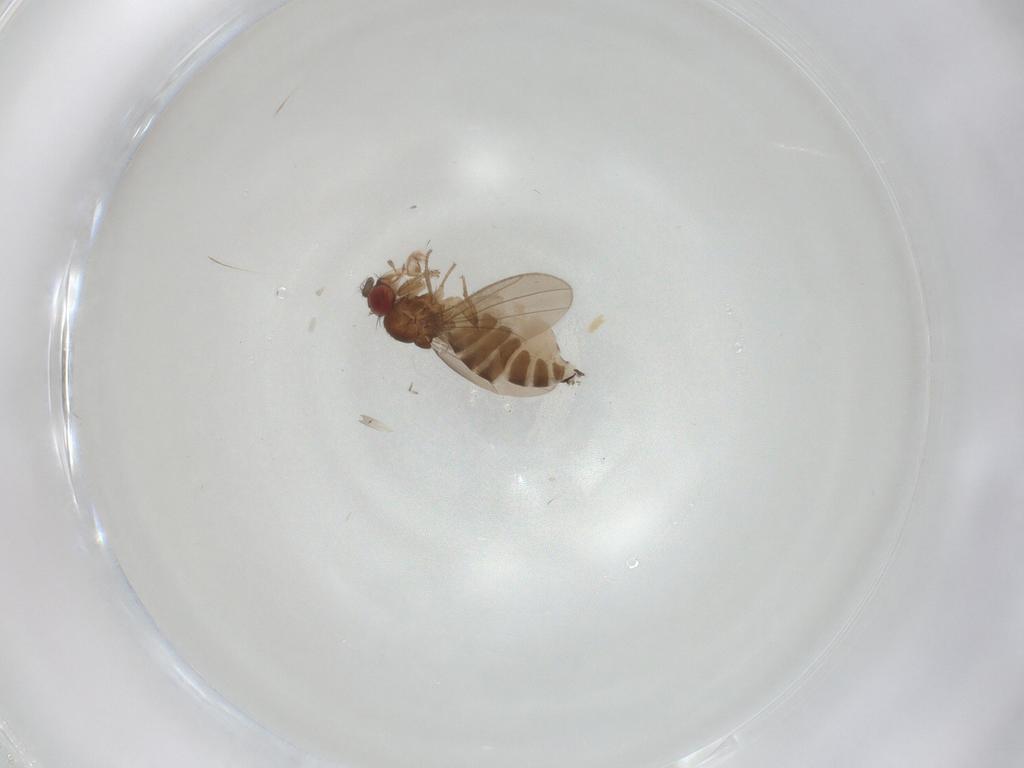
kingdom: Animalia
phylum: Arthropoda
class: Insecta
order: Diptera
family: Drosophilidae
